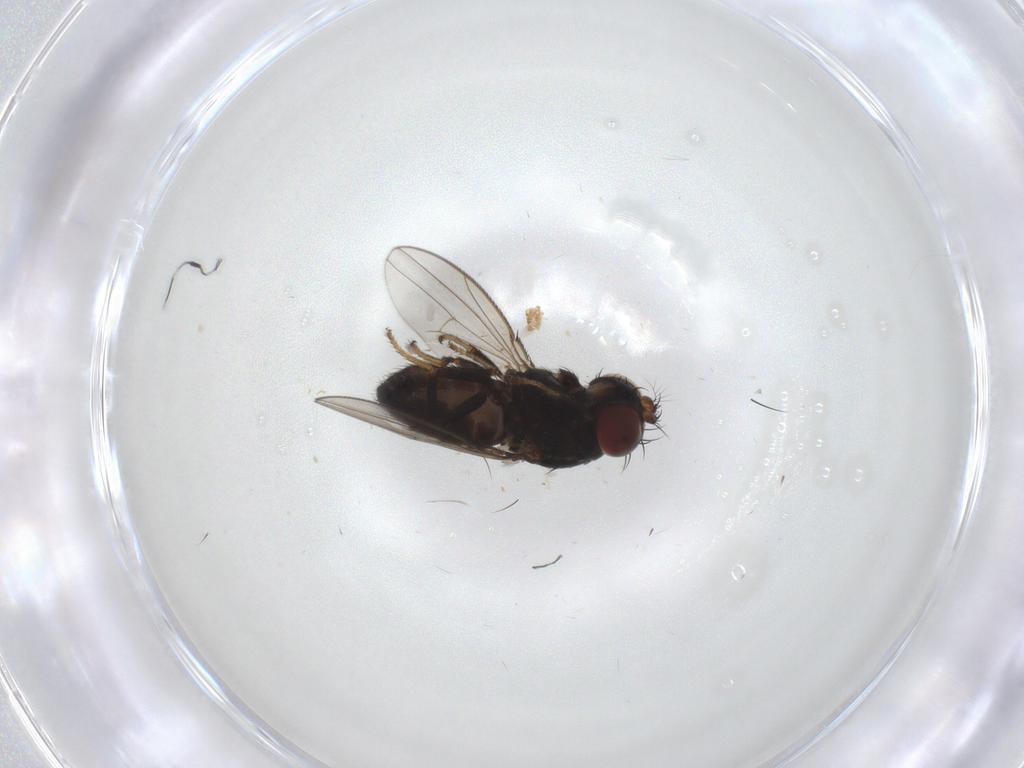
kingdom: Animalia
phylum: Arthropoda
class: Insecta
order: Diptera
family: Ephydridae
